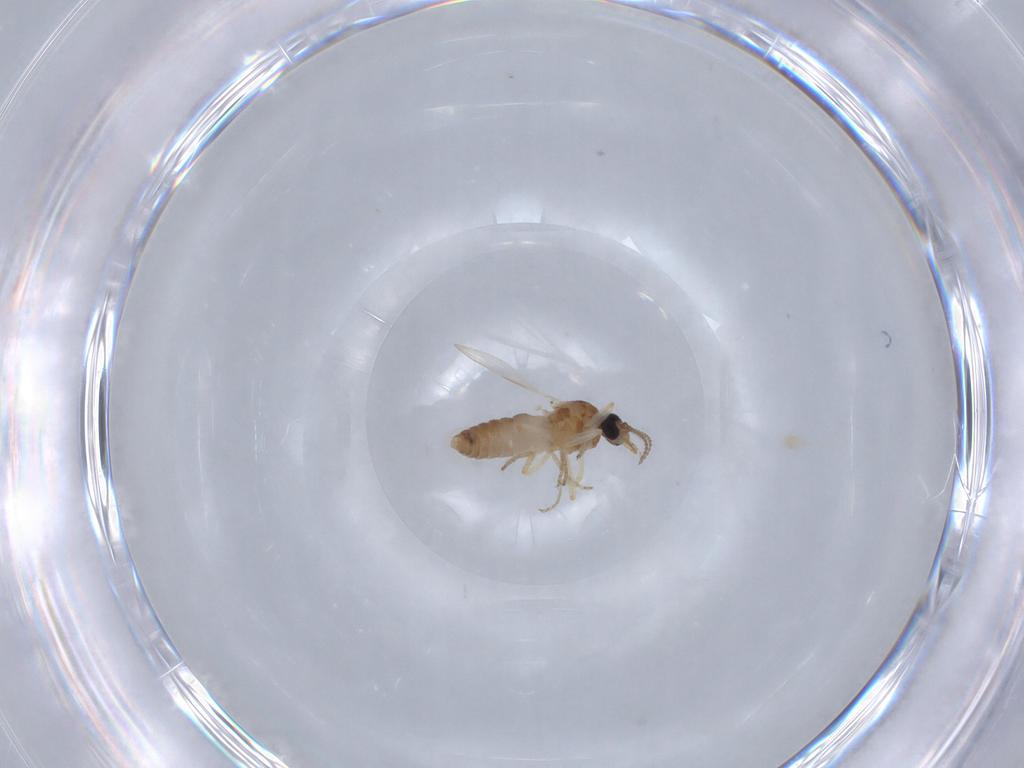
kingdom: Animalia
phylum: Arthropoda
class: Insecta
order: Diptera
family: Ceratopogonidae
